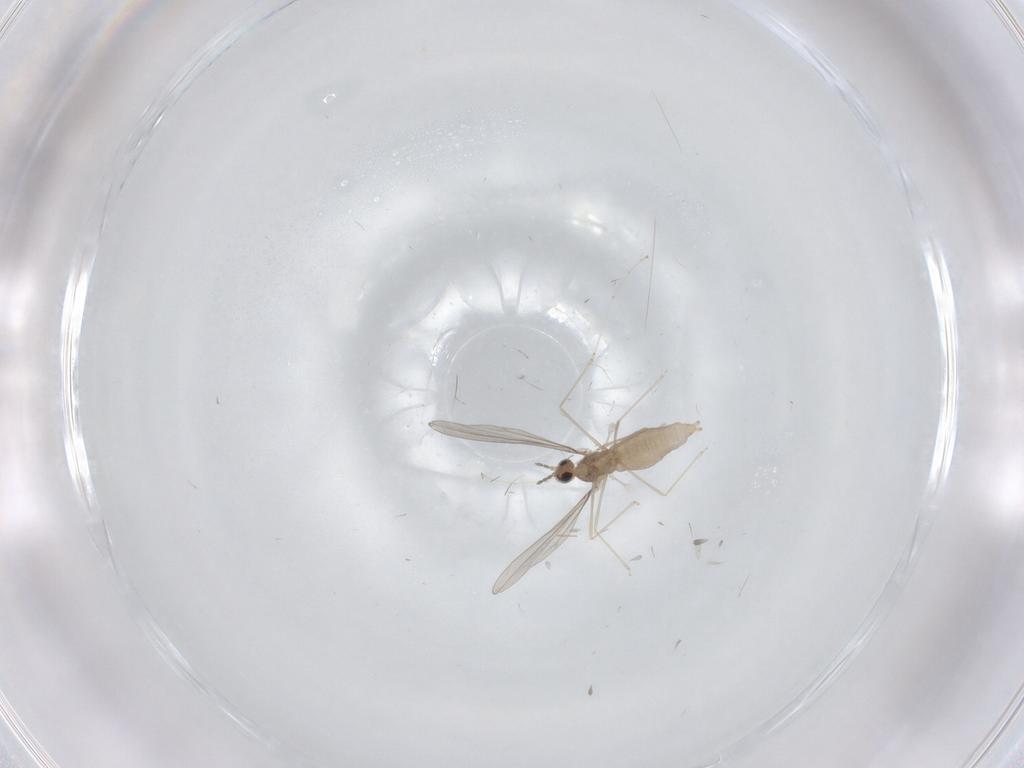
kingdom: Animalia
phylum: Arthropoda
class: Insecta
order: Diptera
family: Cecidomyiidae
